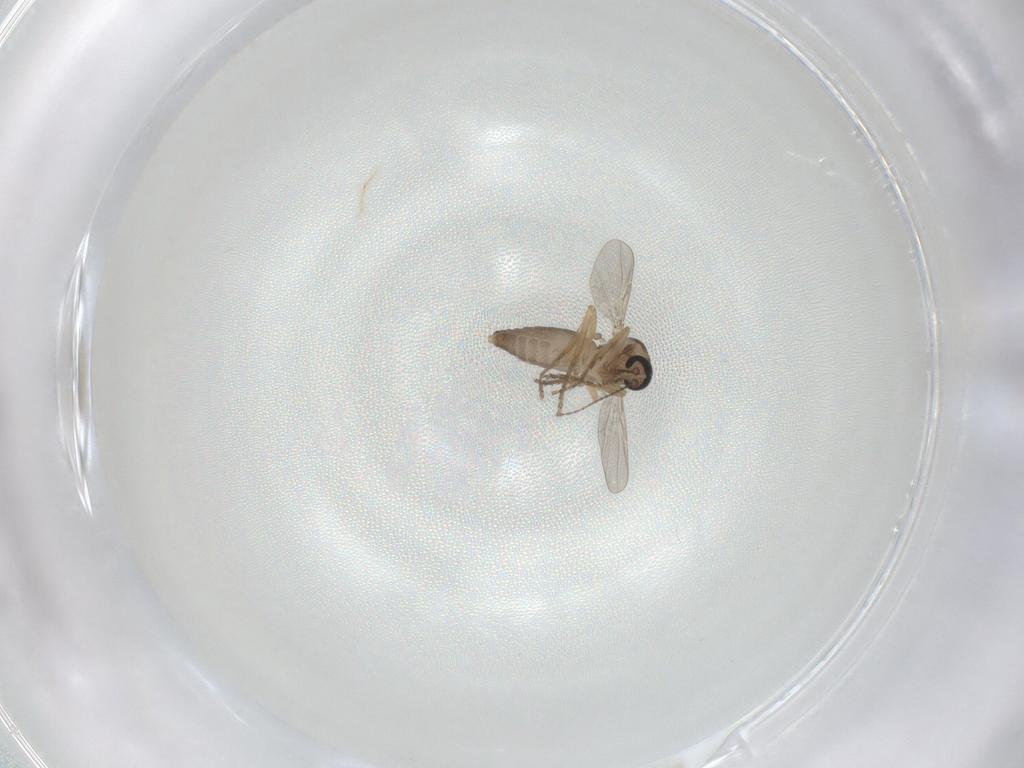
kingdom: Animalia
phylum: Arthropoda
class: Insecta
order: Diptera
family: Ceratopogonidae
